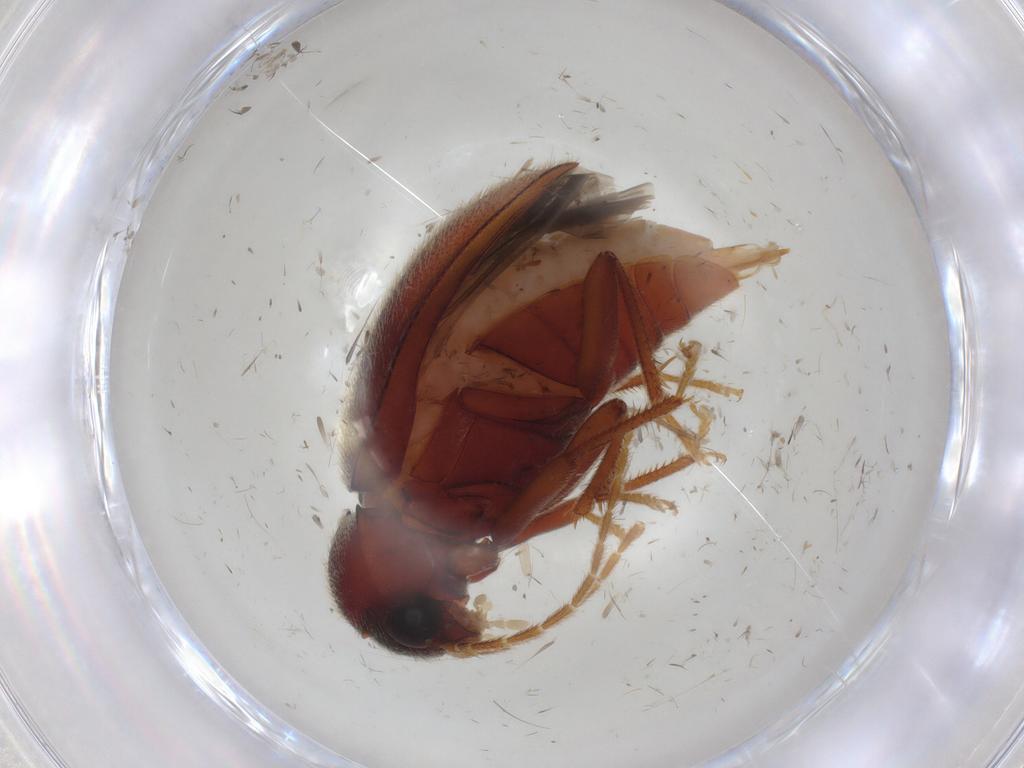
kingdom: Animalia
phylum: Arthropoda
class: Insecta
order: Coleoptera
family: Ptilodactylidae
